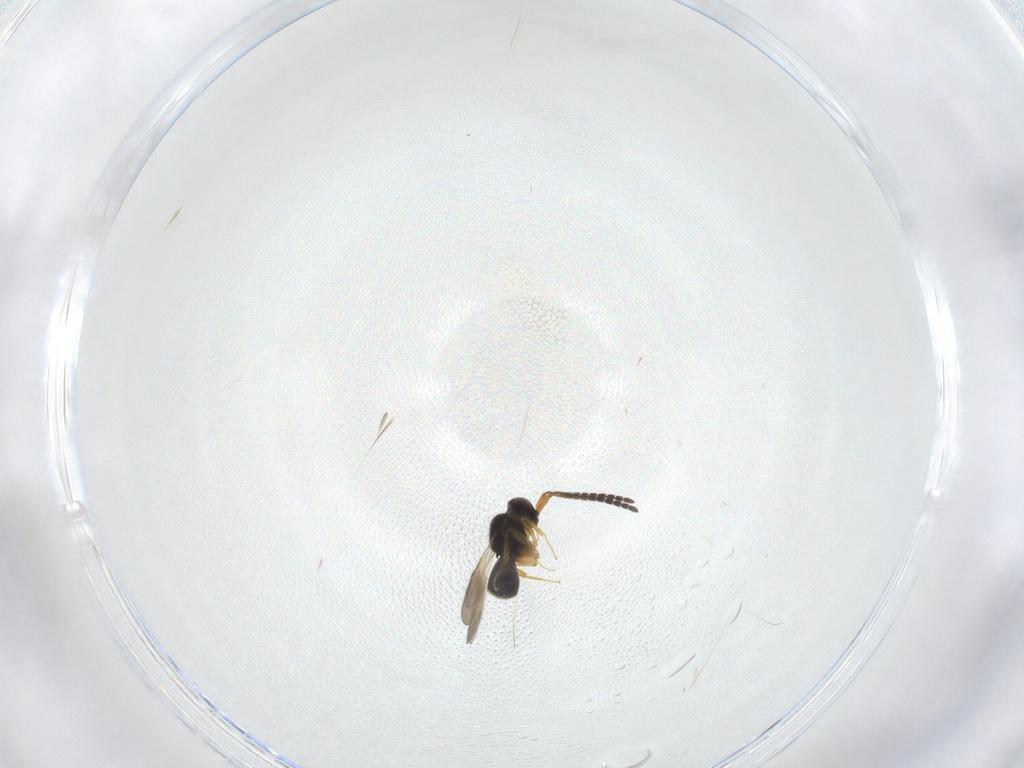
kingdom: Animalia
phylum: Arthropoda
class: Insecta
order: Hymenoptera
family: Ceraphronidae
